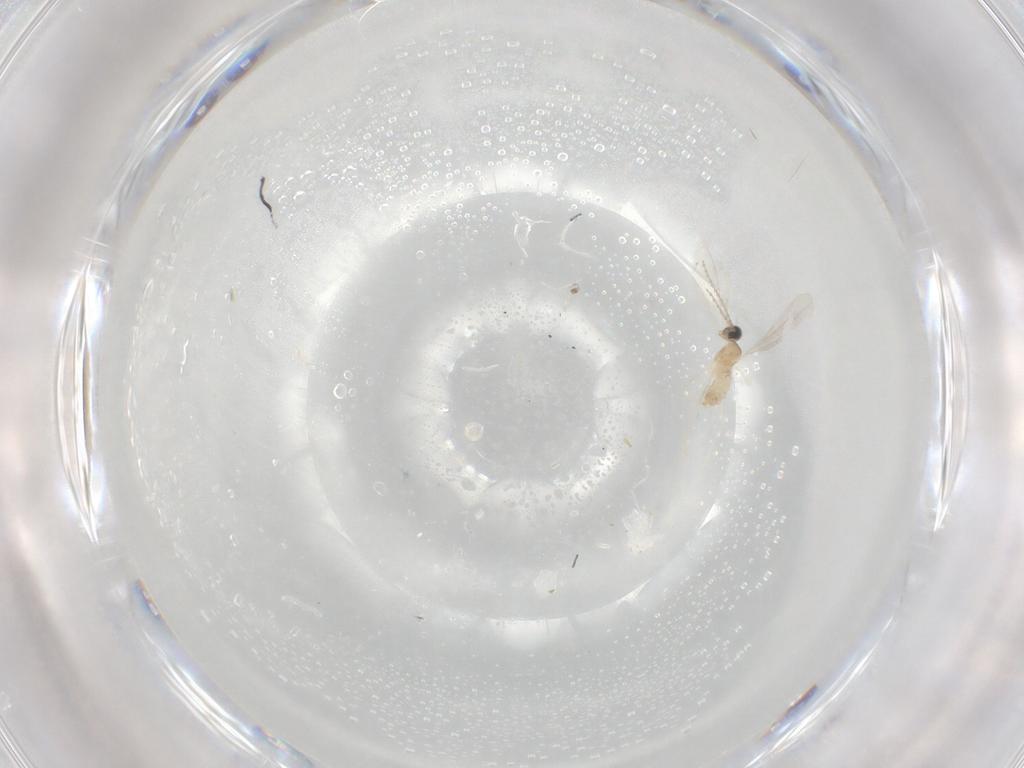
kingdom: Animalia
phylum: Arthropoda
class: Insecta
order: Diptera
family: Cecidomyiidae
